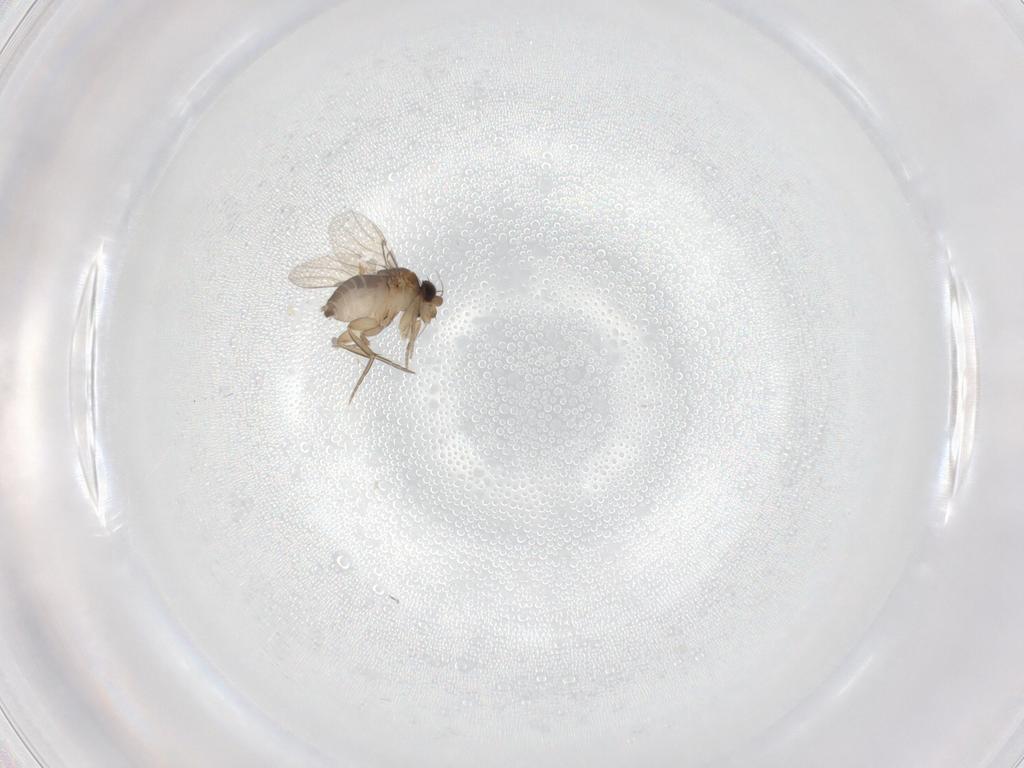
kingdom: Animalia
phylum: Arthropoda
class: Insecta
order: Diptera
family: Phoridae
